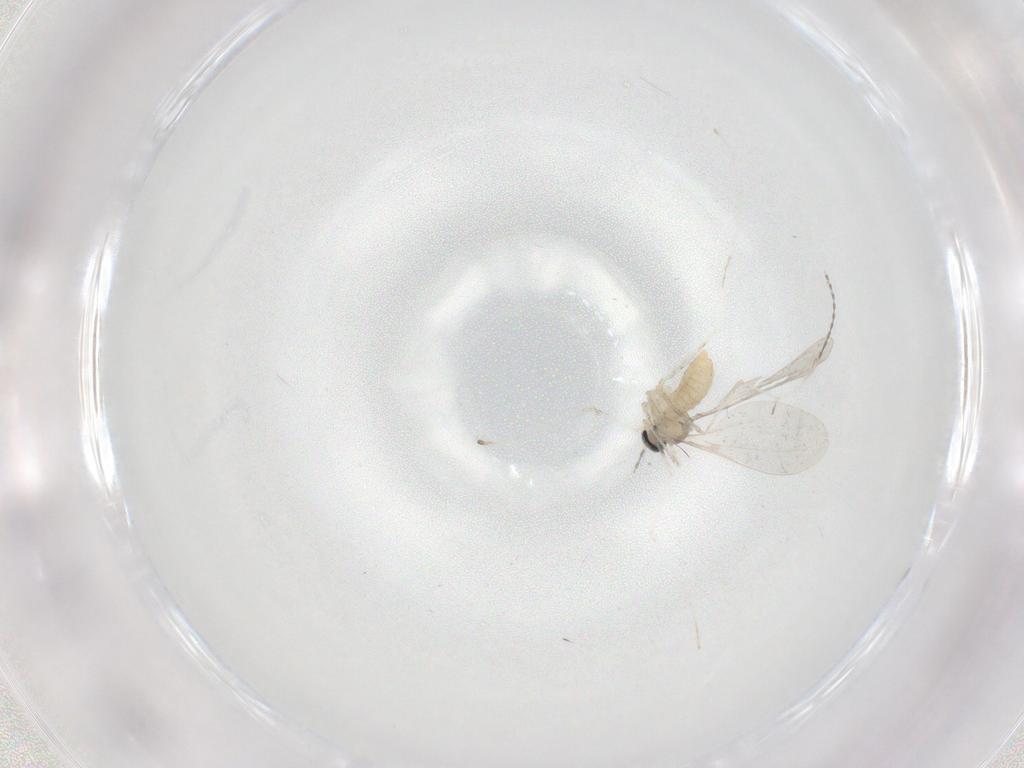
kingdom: Animalia
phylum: Arthropoda
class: Insecta
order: Diptera
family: Cecidomyiidae
